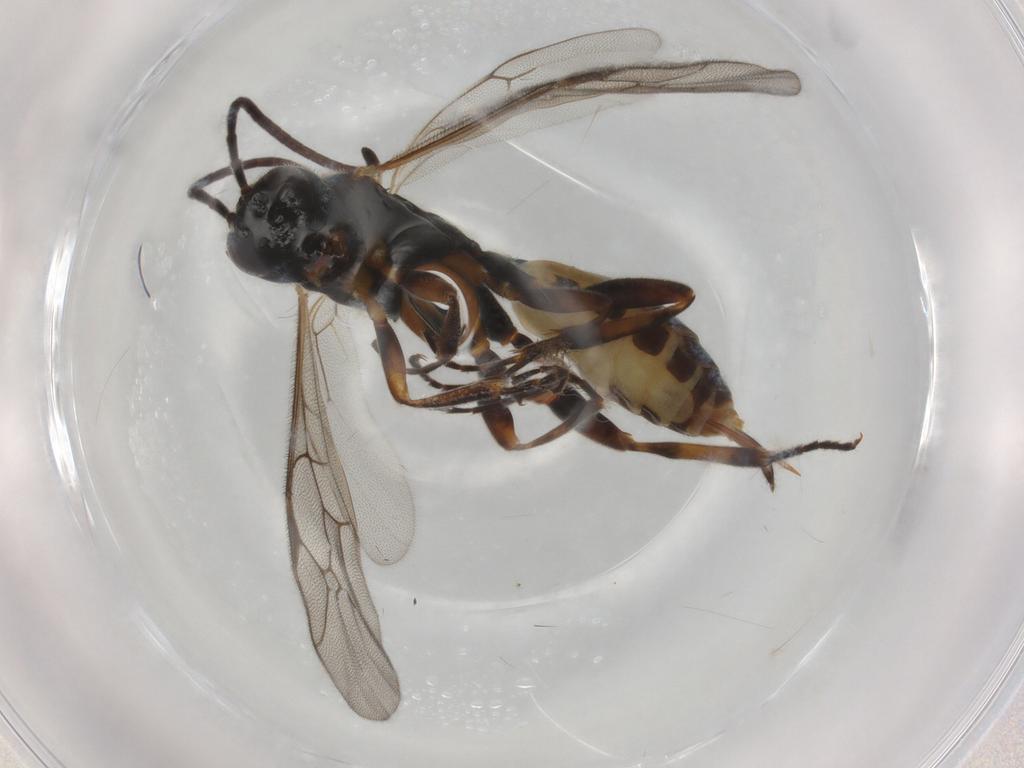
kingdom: Animalia
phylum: Arthropoda
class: Insecta
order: Hymenoptera
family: Ichneumonidae
